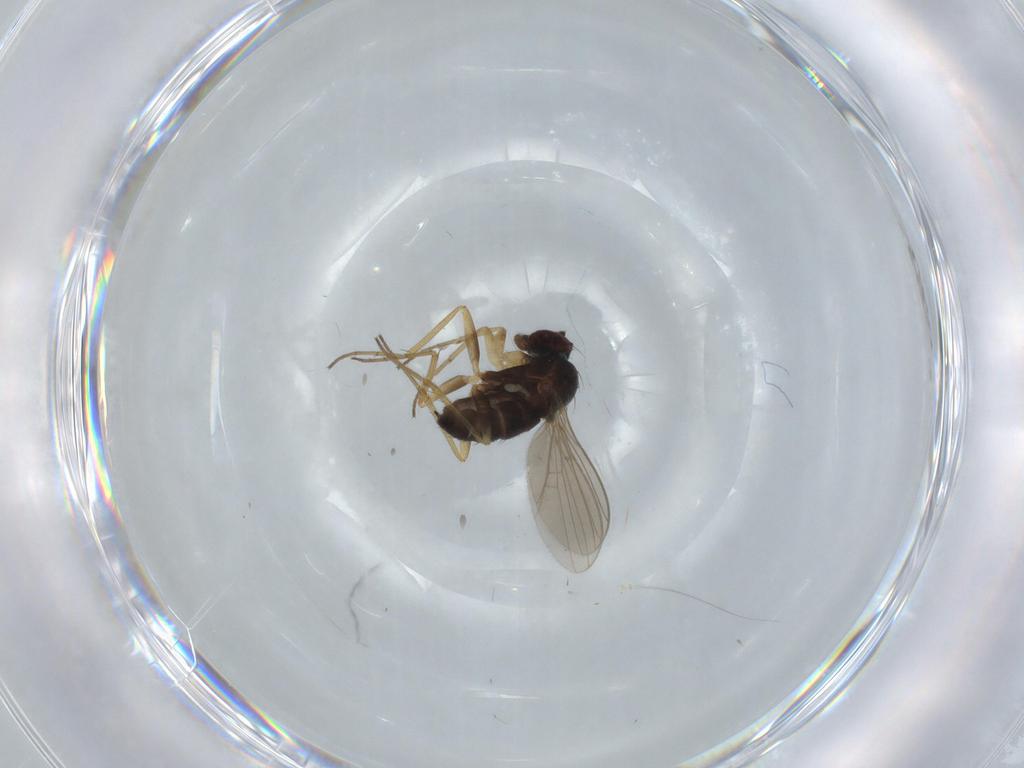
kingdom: Animalia
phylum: Arthropoda
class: Insecta
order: Diptera
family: Dolichopodidae
